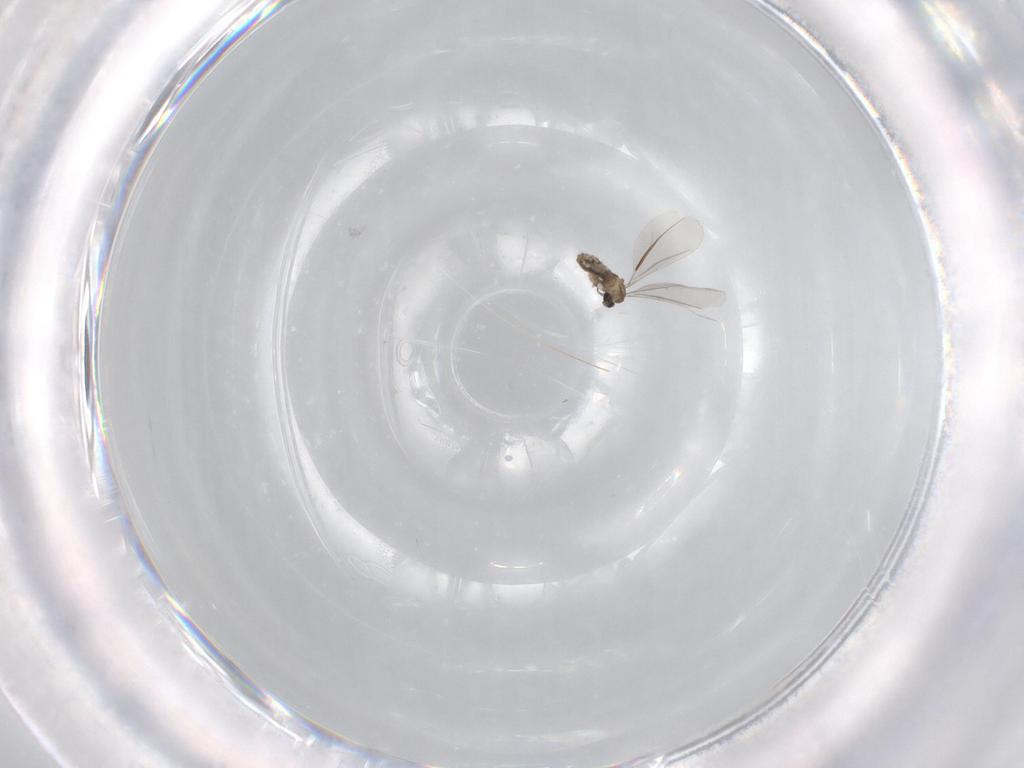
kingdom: Animalia
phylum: Arthropoda
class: Insecta
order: Diptera
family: Cecidomyiidae
